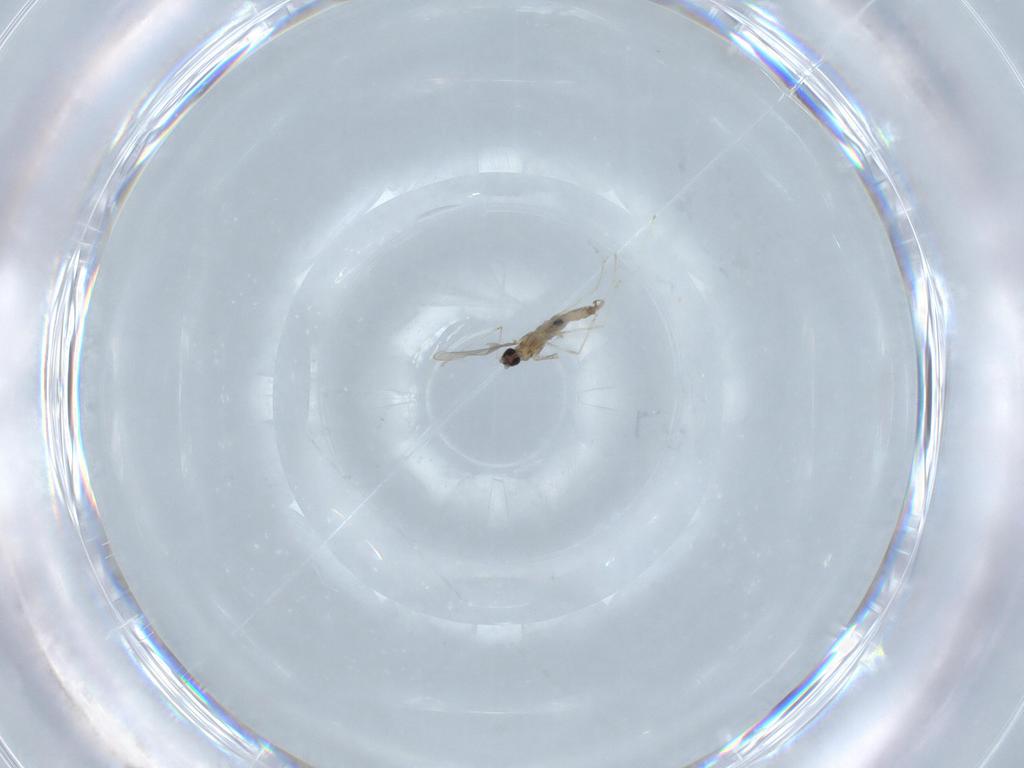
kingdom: Animalia
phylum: Arthropoda
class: Insecta
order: Diptera
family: Cecidomyiidae
